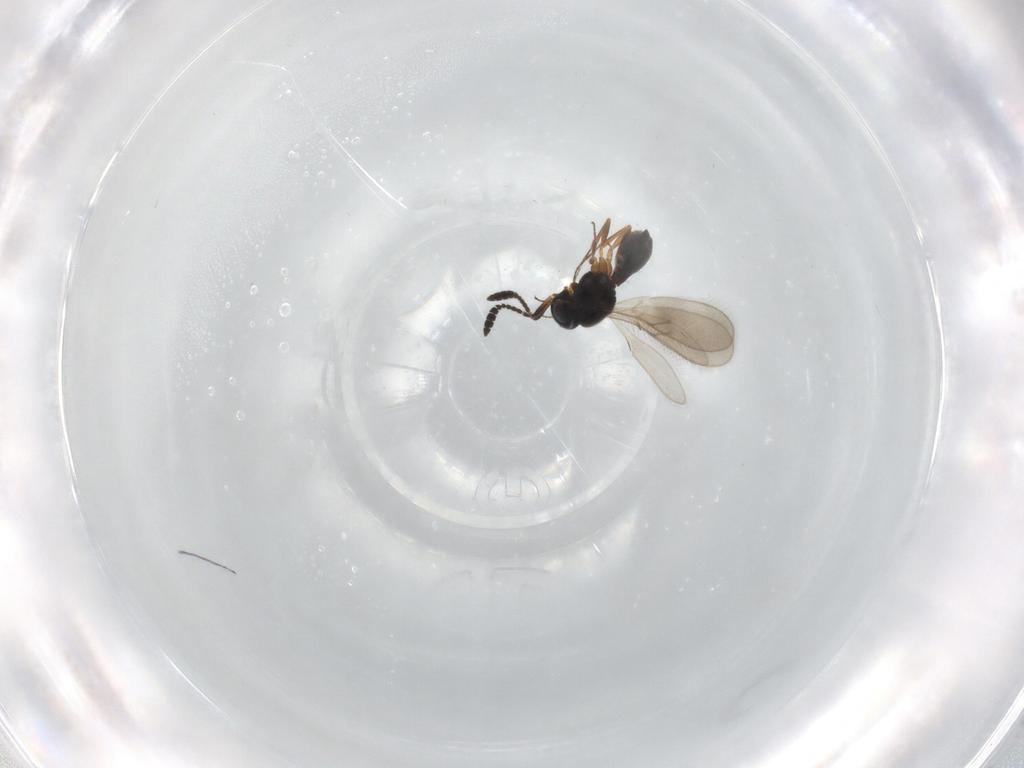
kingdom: Animalia
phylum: Arthropoda
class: Insecta
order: Hymenoptera
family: Scelionidae
